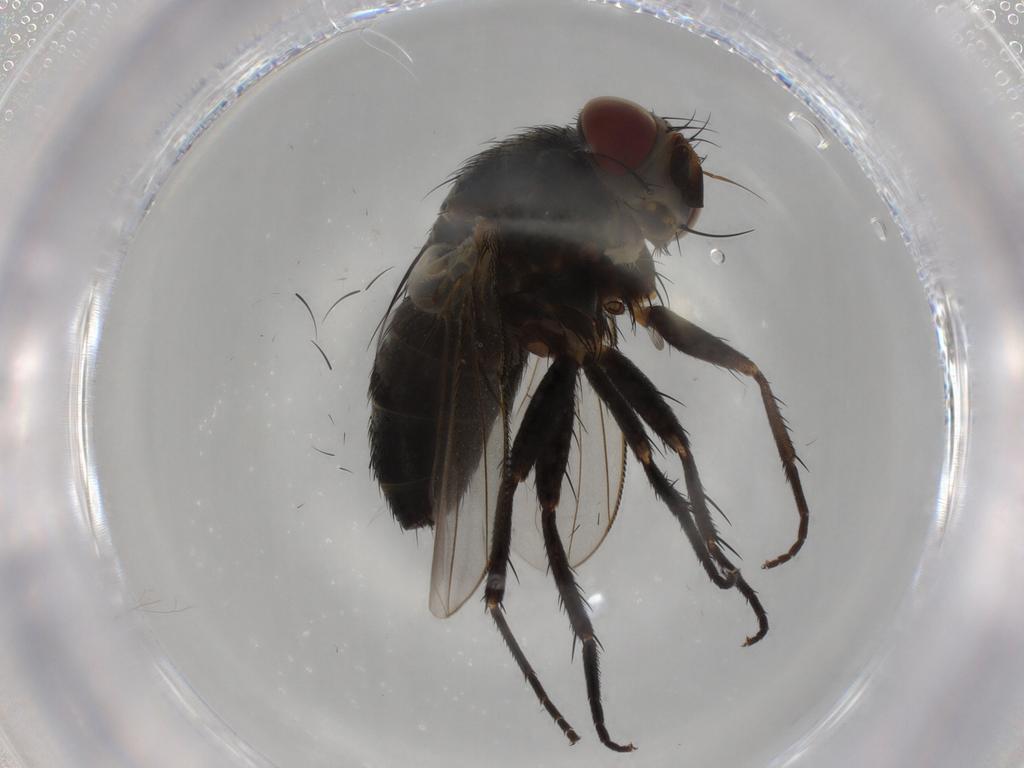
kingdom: Animalia
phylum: Arthropoda
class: Insecta
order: Diptera
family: Tachinidae
